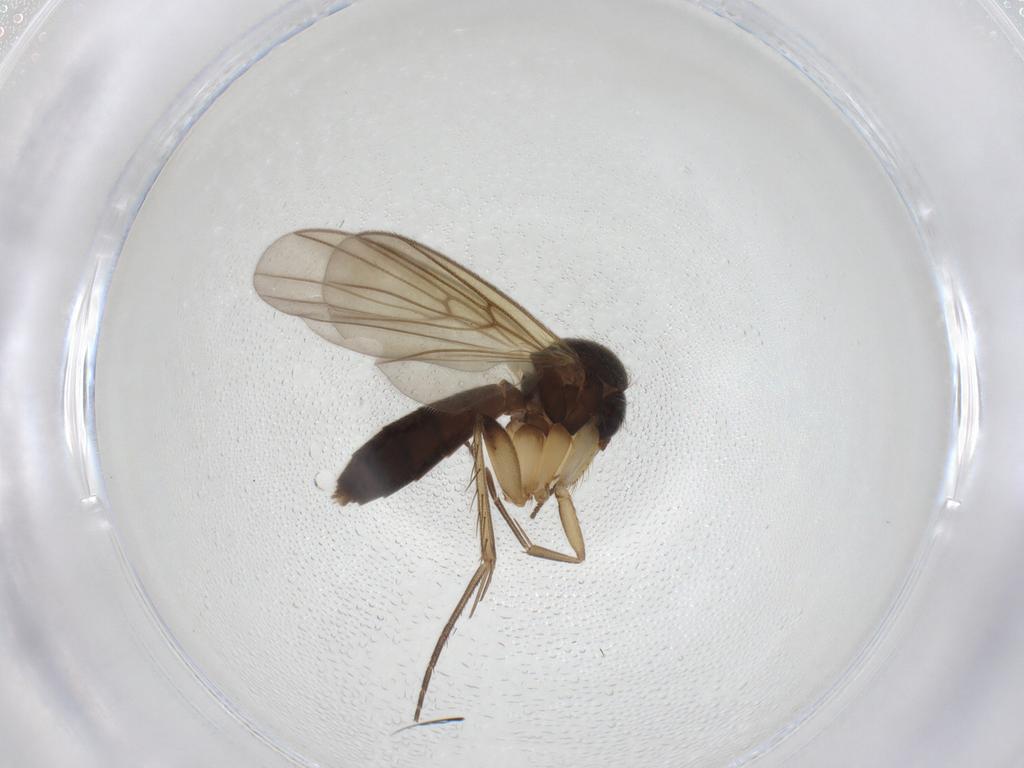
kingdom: Animalia
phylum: Arthropoda
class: Insecta
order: Diptera
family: Mycetophilidae
